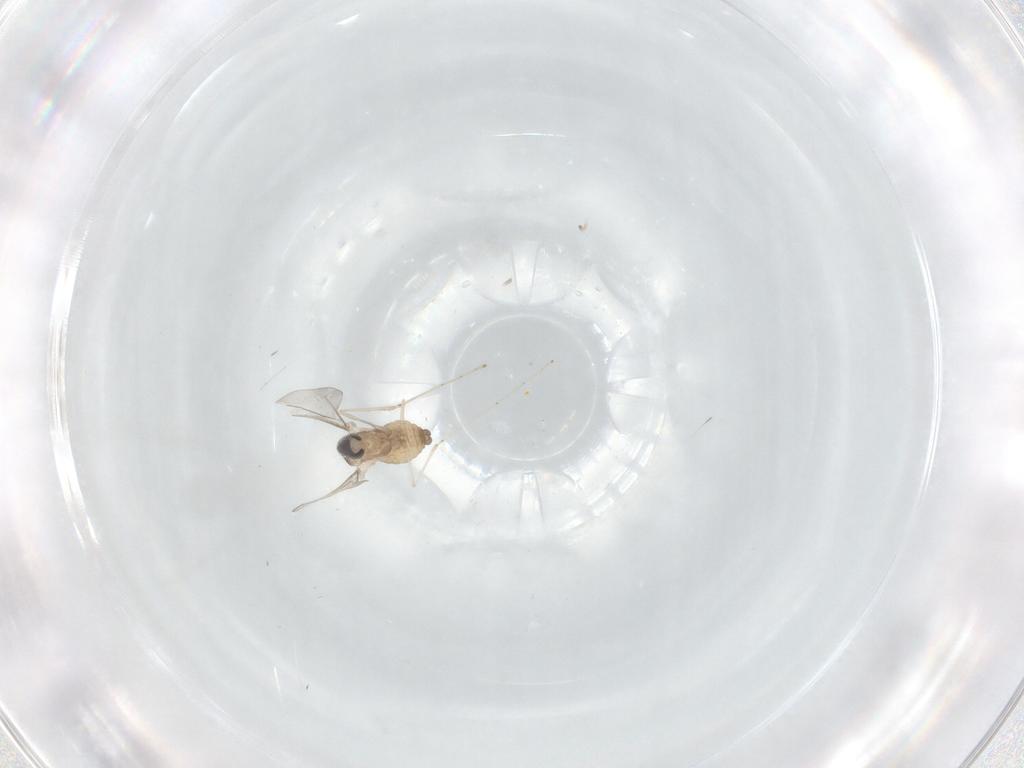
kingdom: Animalia
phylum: Arthropoda
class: Insecta
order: Diptera
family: Cecidomyiidae
